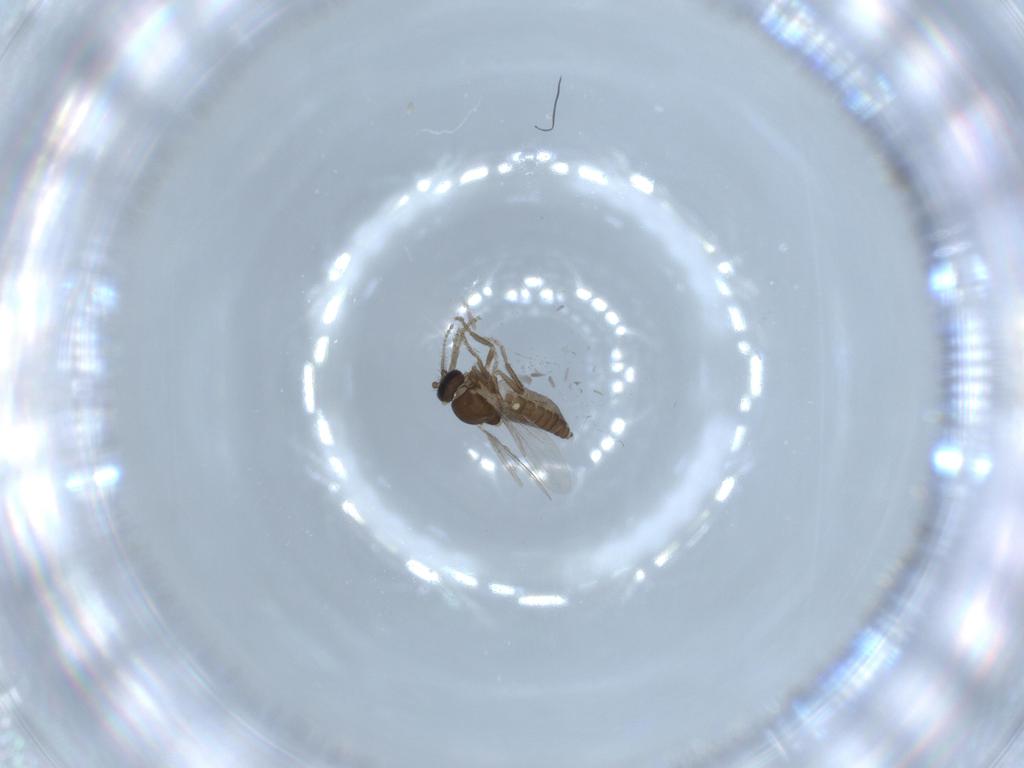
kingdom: Animalia
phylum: Arthropoda
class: Insecta
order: Diptera
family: Ceratopogonidae
